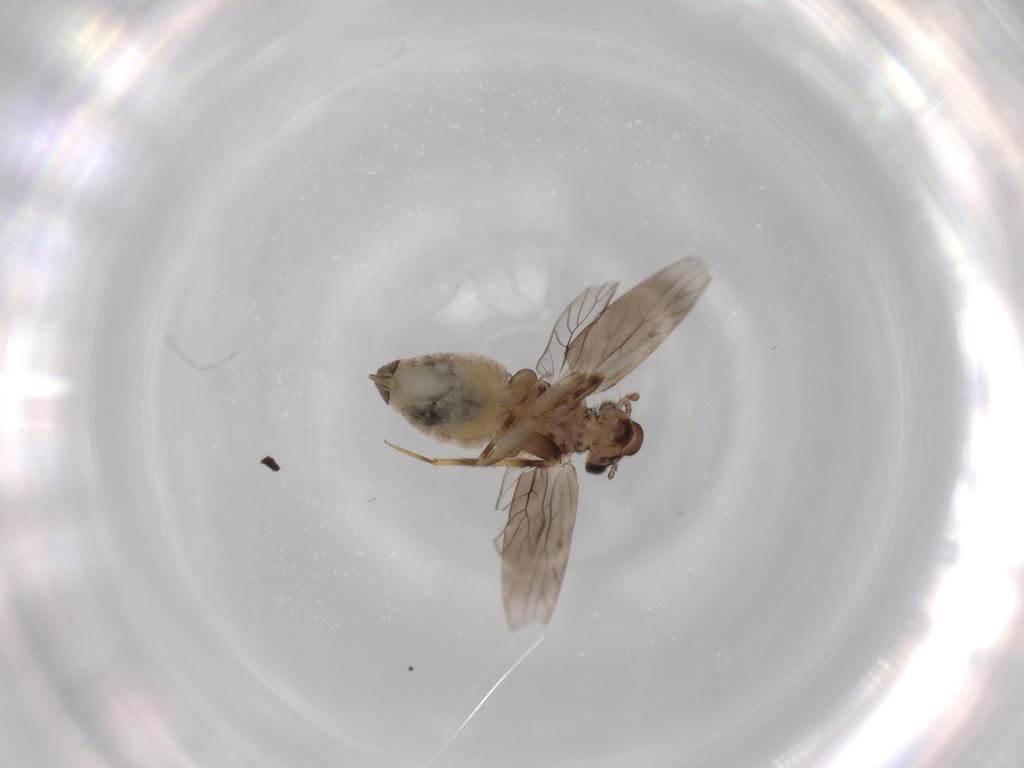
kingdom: Animalia
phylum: Arthropoda
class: Insecta
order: Psocodea
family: Lepidopsocidae
